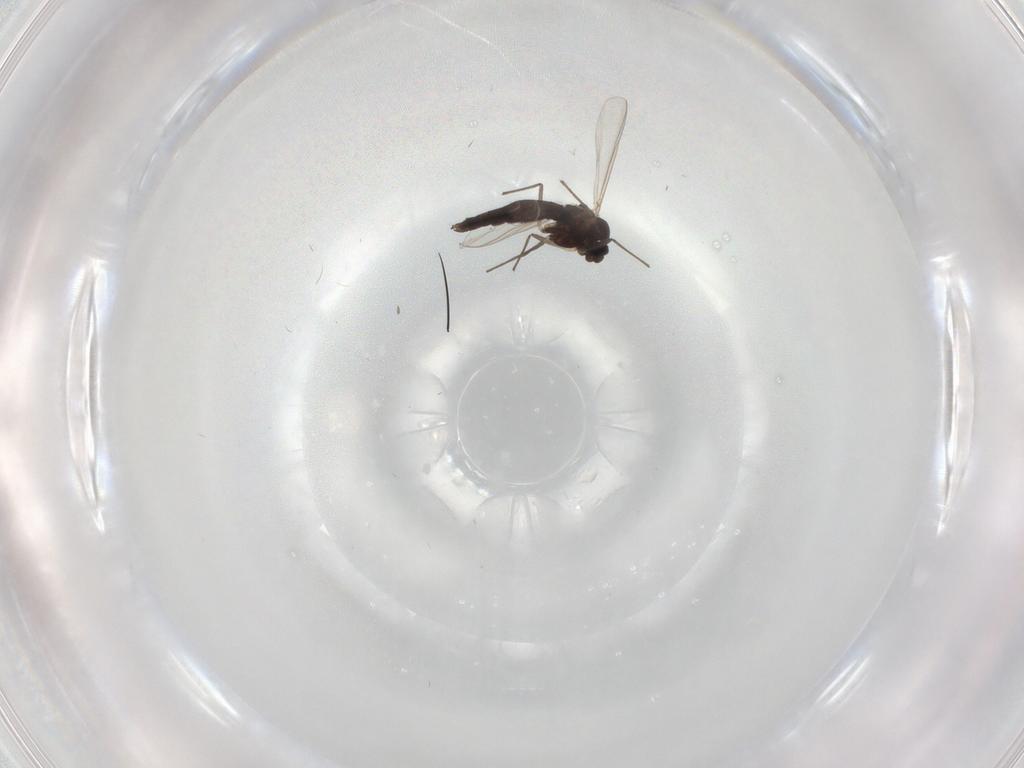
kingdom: Animalia
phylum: Arthropoda
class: Insecta
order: Diptera
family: Chironomidae
